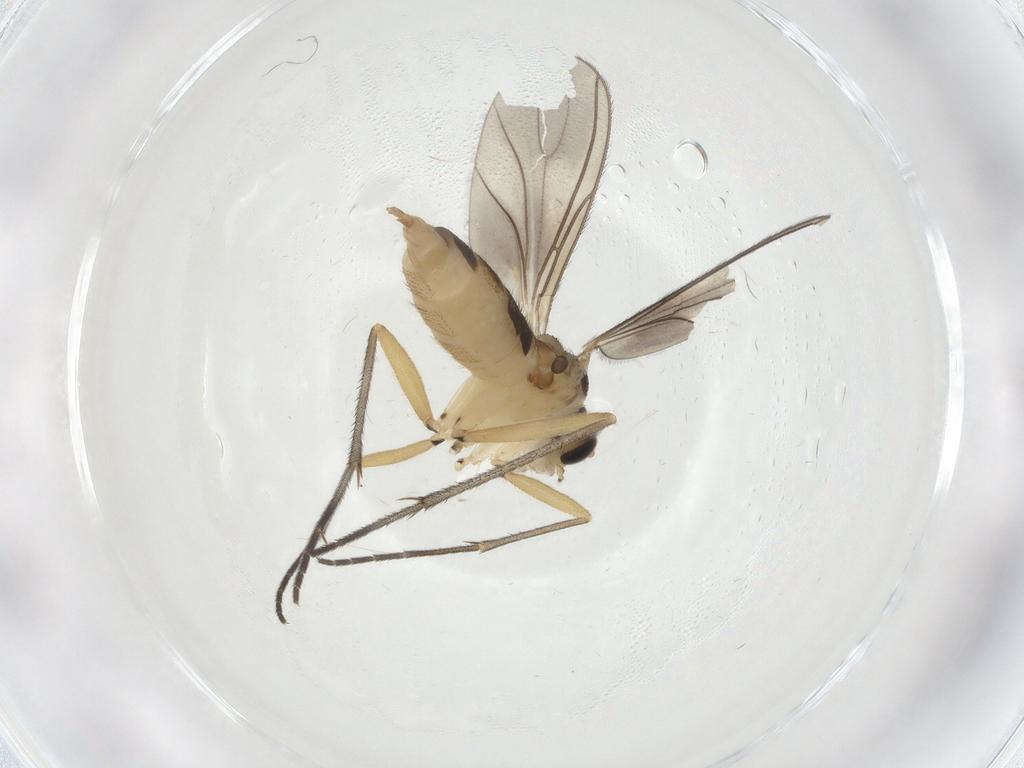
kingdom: Animalia
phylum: Arthropoda
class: Insecta
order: Diptera
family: Sciaridae
